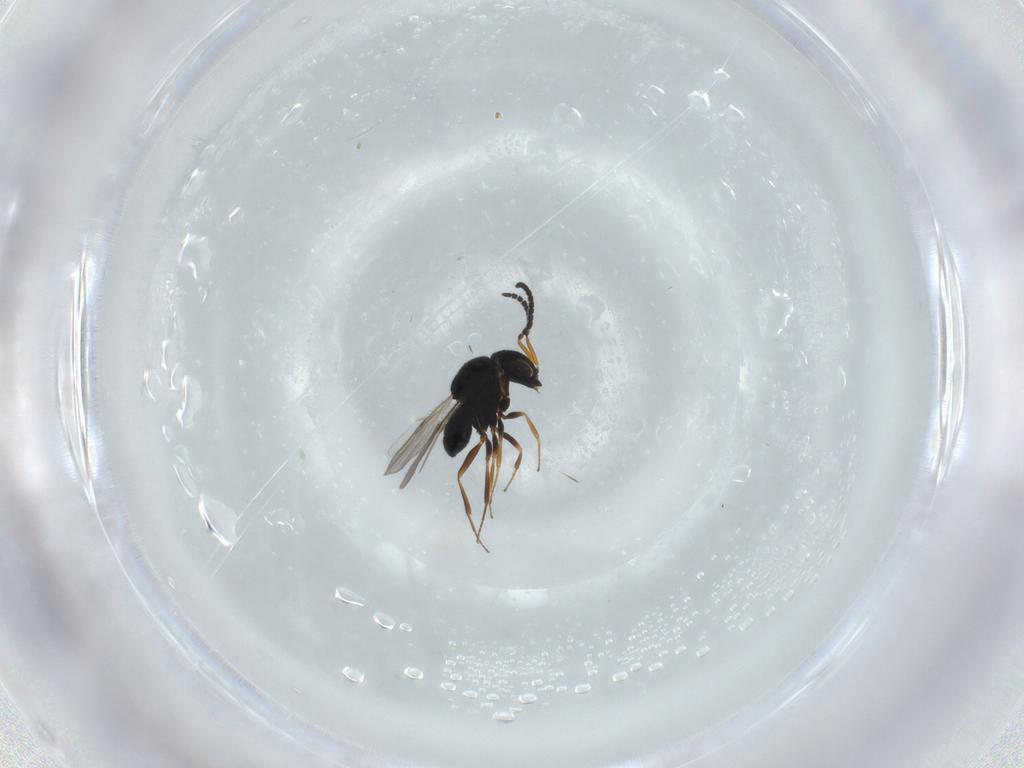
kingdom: Animalia
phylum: Arthropoda
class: Insecta
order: Hymenoptera
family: Scelionidae
